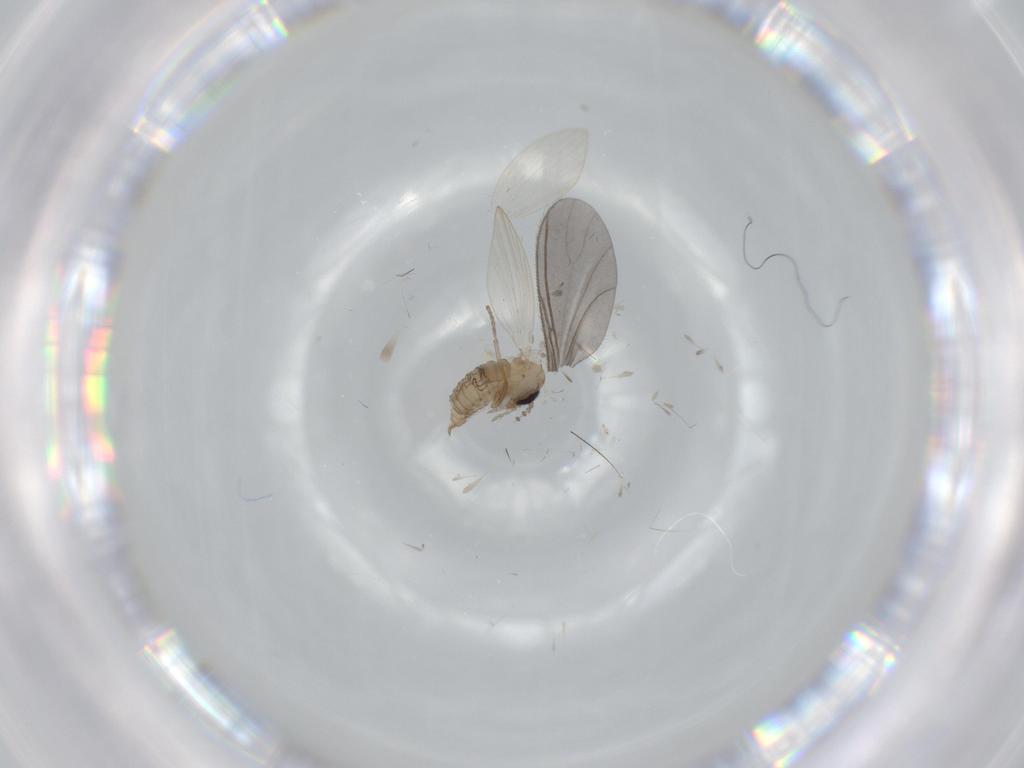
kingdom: Animalia
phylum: Arthropoda
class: Insecta
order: Diptera
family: Psychodidae
